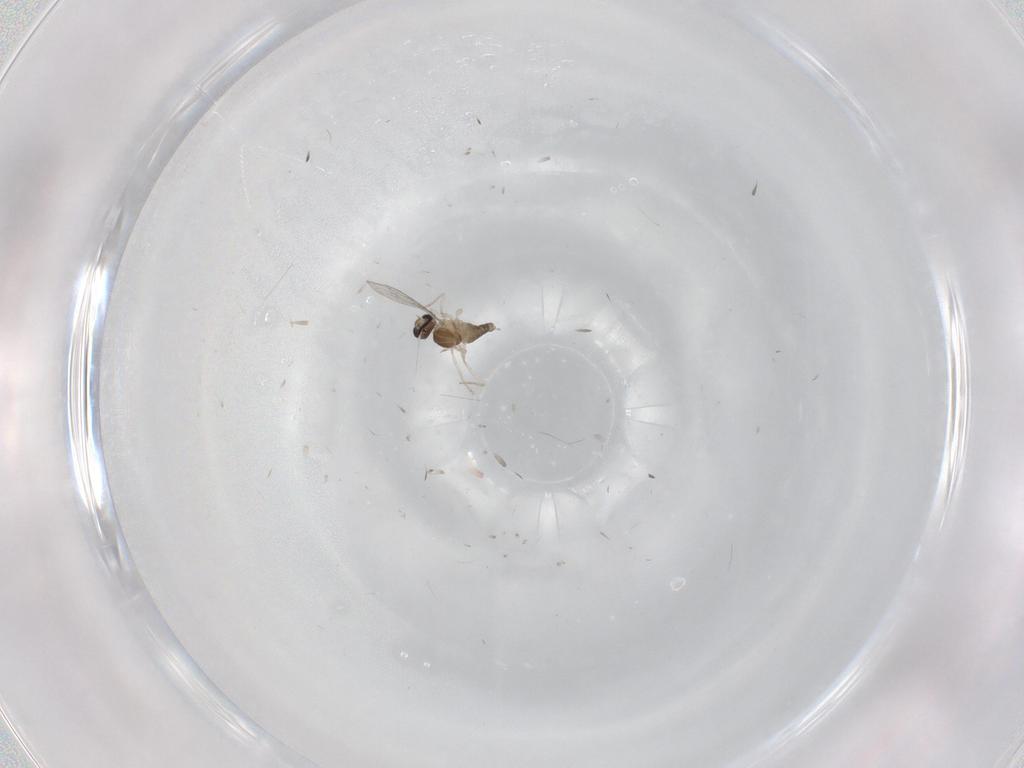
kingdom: Animalia
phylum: Arthropoda
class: Insecta
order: Diptera
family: Cecidomyiidae
